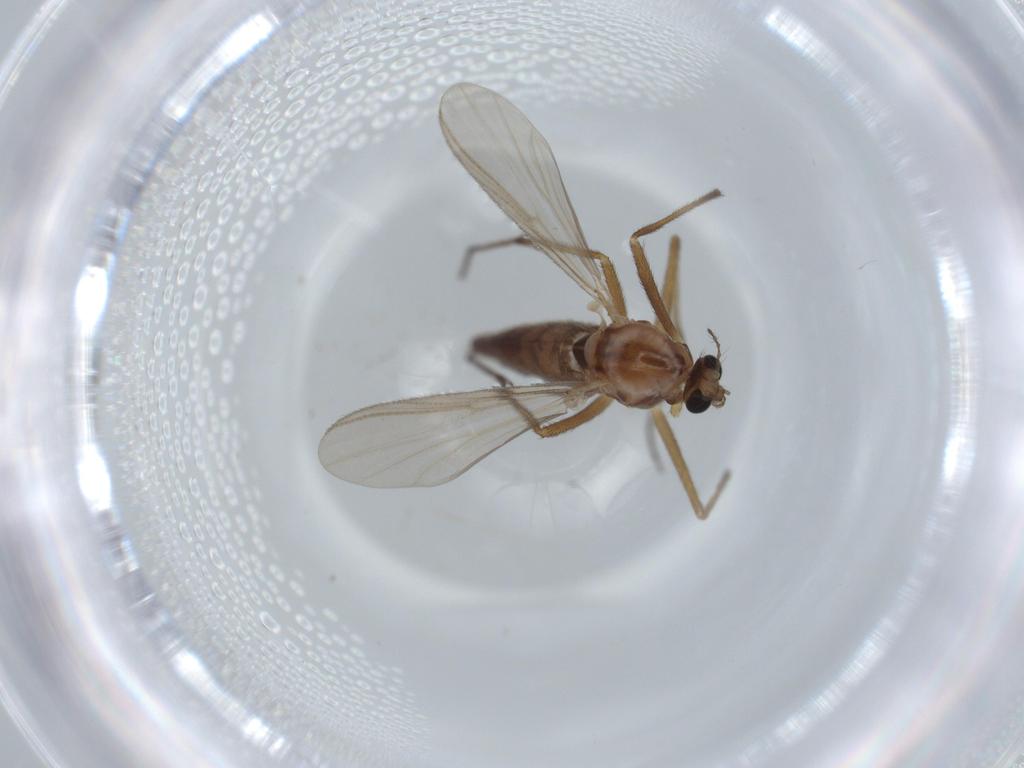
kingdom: Animalia
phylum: Arthropoda
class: Insecta
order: Diptera
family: Chironomidae
